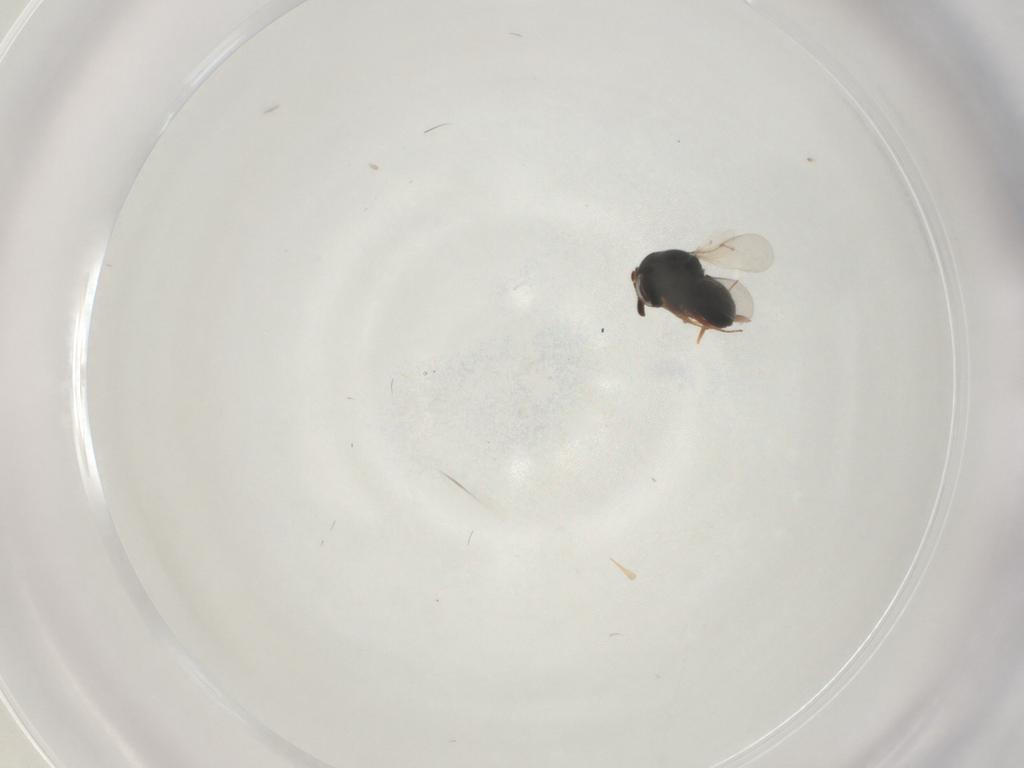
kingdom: Animalia
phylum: Arthropoda
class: Insecta
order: Hymenoptera
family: Scelionidae
